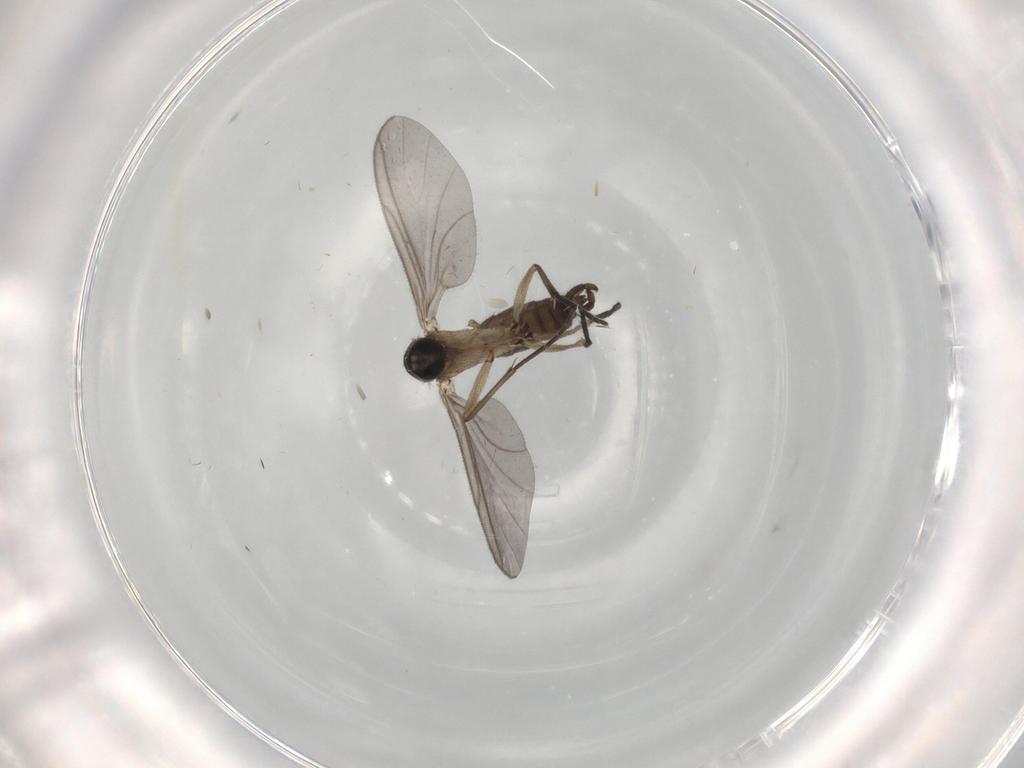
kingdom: Animalia
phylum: Arthropoda
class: Insecta
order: Diptera
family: Sciaridae
